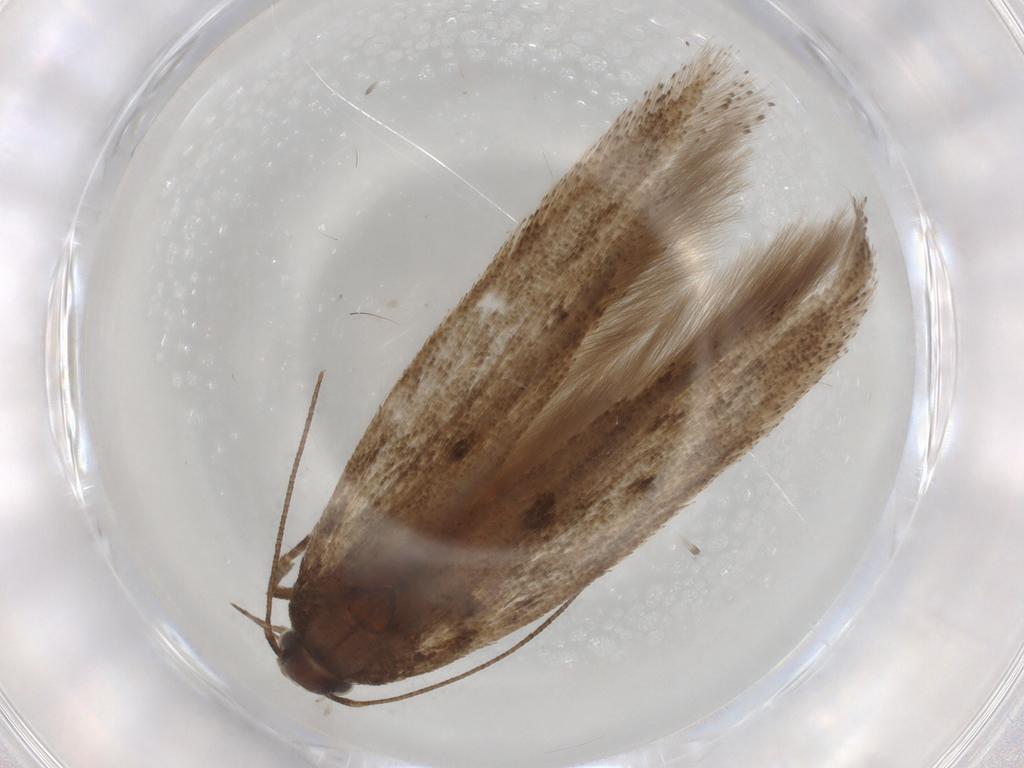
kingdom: Animalia
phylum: Arthropoda
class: Insecta
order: Lepidoptera
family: Gelechiidae
